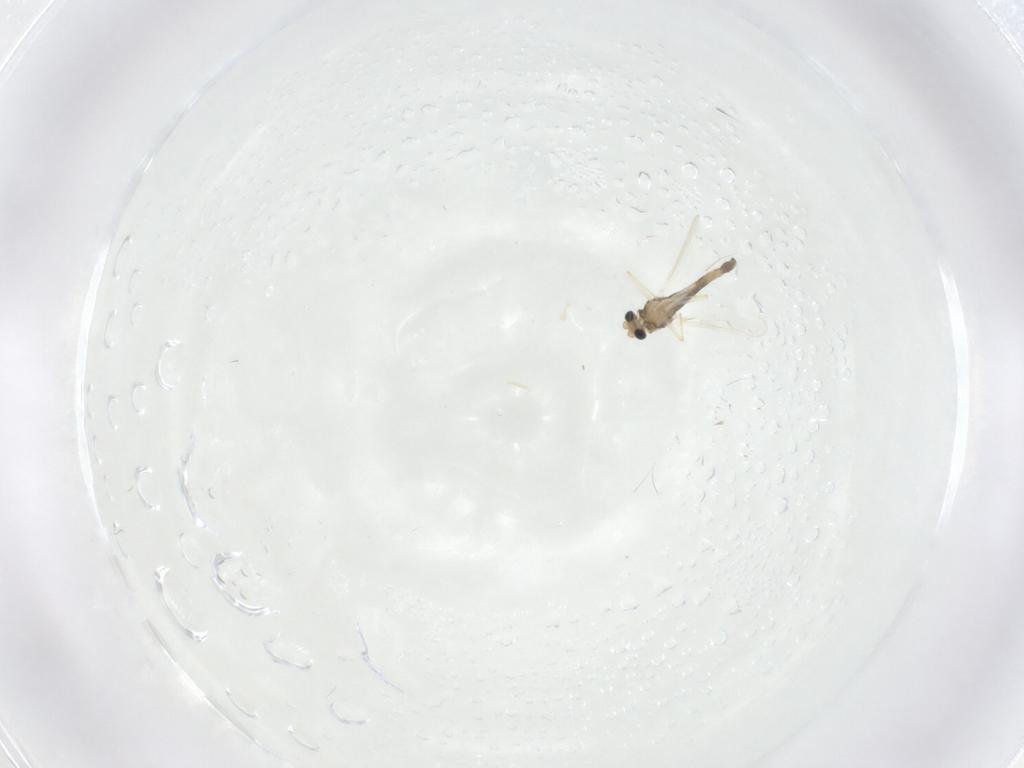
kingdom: Animalia
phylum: Arthropoda
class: Insecta
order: Diptera
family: Chironomidae
